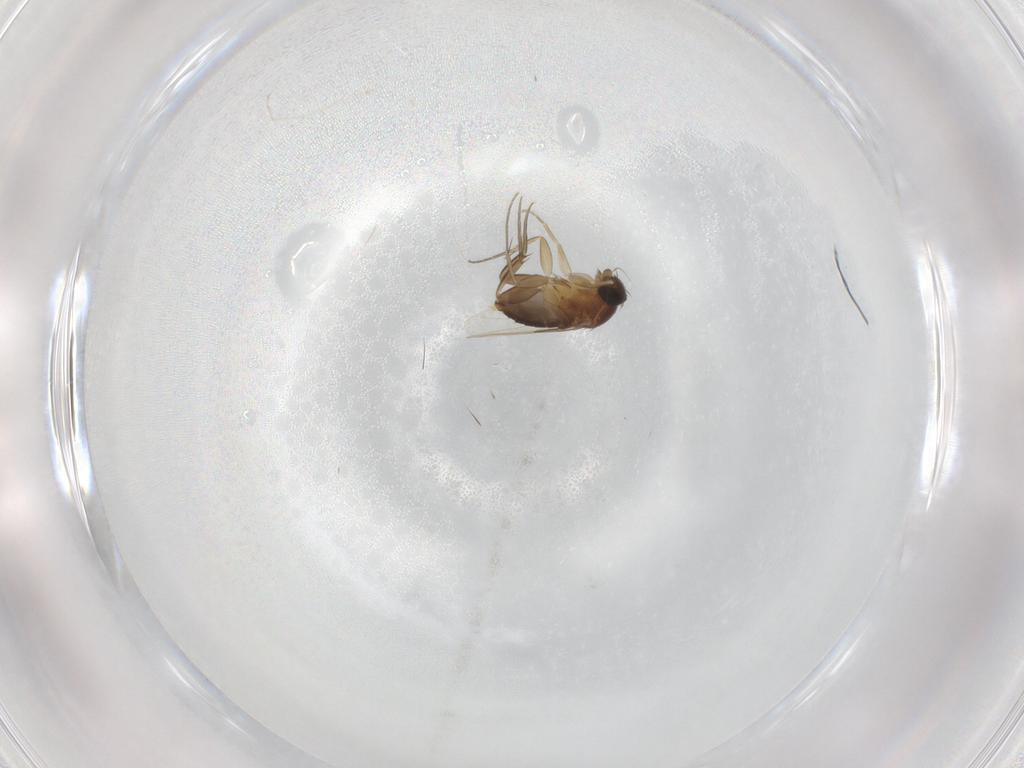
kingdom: Animalia
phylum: Arthropoda
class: Insecta
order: Diptera
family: Phoridae
